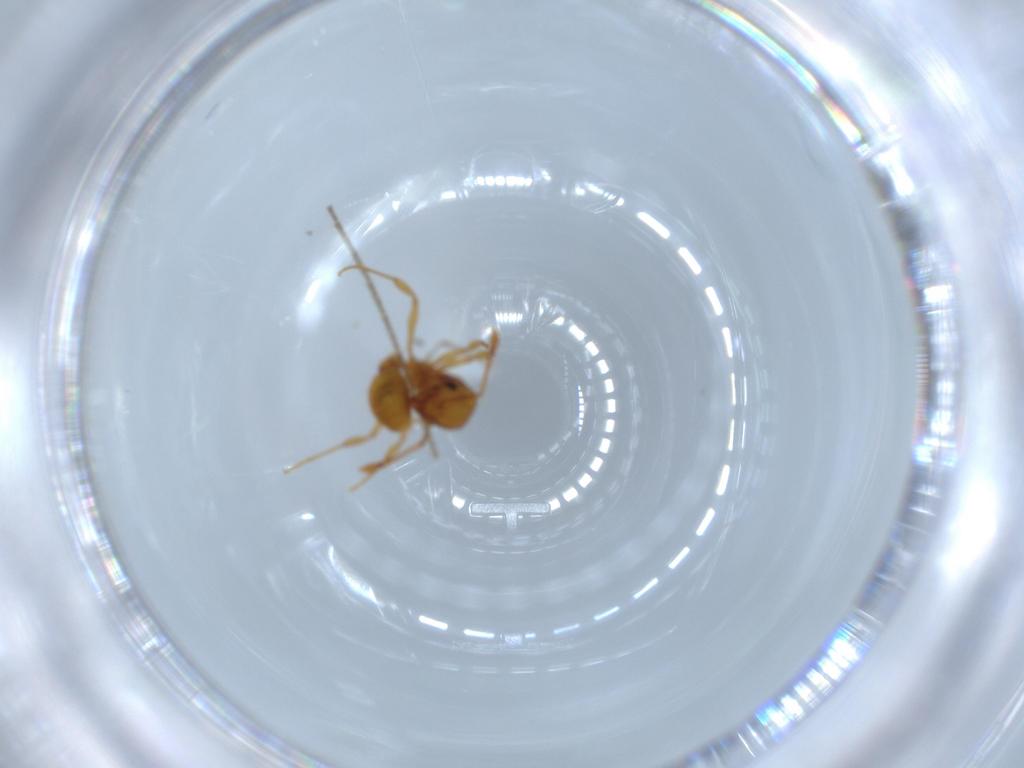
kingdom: Animalia
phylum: Arthropoda
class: Insecta
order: Hymenoptera
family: Formicidae
